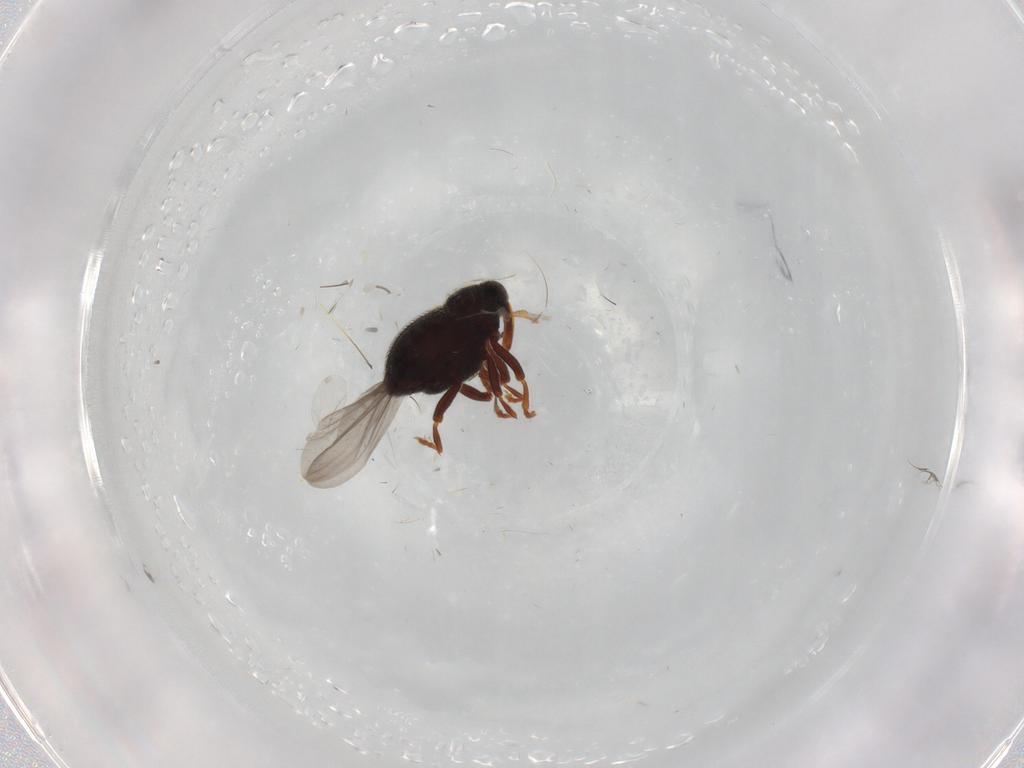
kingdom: Animalia
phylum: Arthropoda
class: Insecta
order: Coleoptera
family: Curculionidae
